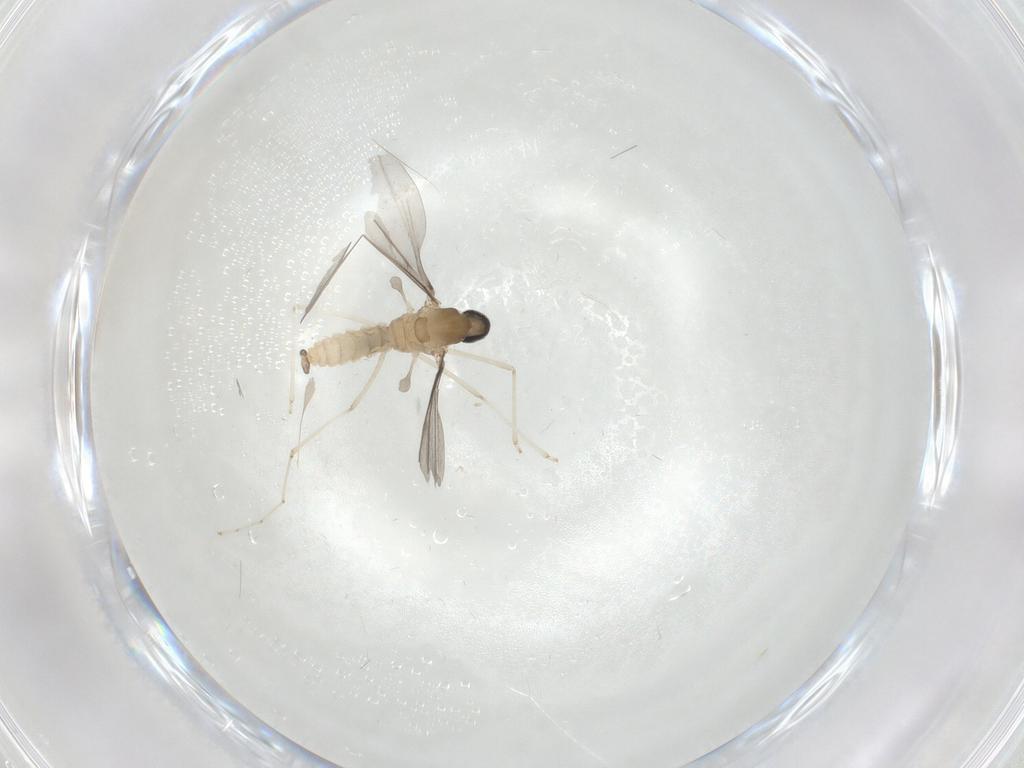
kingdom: Animalia
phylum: Arthropoda
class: Insecta
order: Diptera
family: Chironomidae
